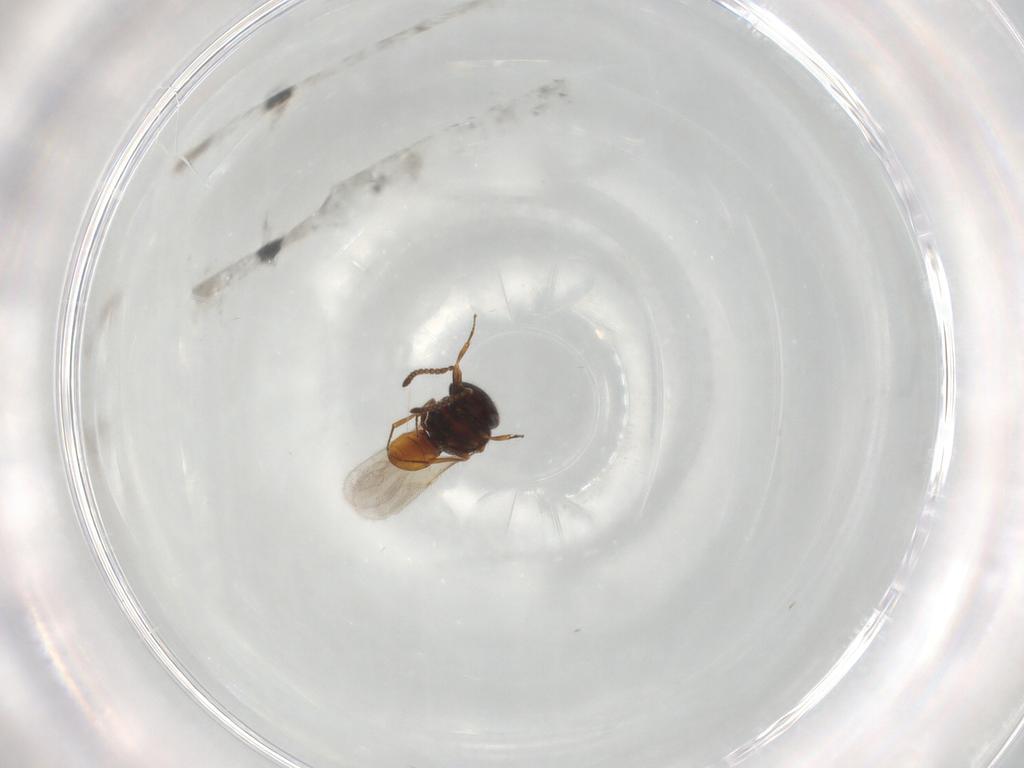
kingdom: Animalia
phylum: Arthropoda
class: Insecta
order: Hymenoptera
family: Scelionidae
